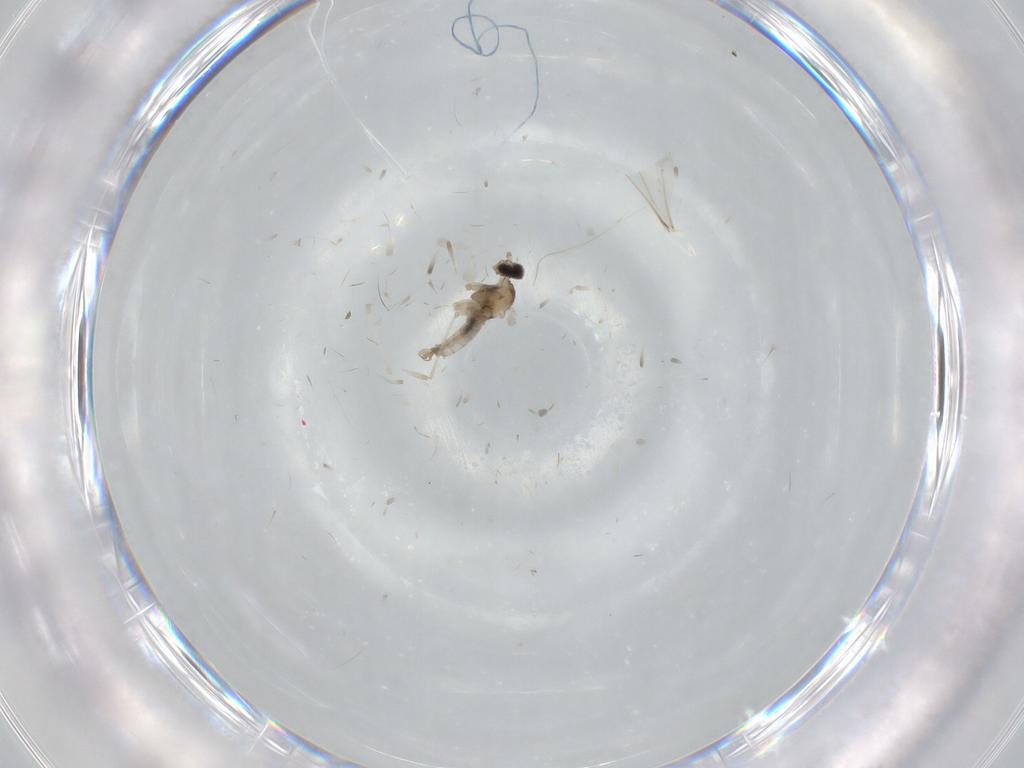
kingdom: Animalia
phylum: Arthropoda
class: Insecta
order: Diptera
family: Cecidomyiidae
